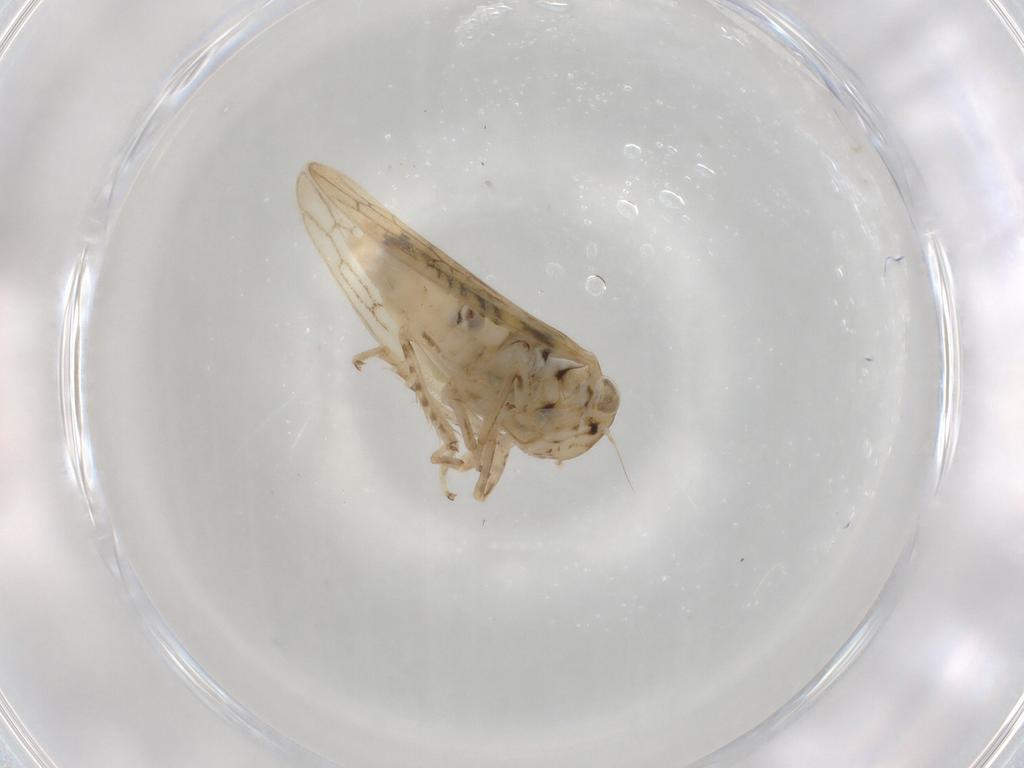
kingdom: Animalia
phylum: Arthropoda
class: Insecta
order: Hemiptera
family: Cicadellidae
